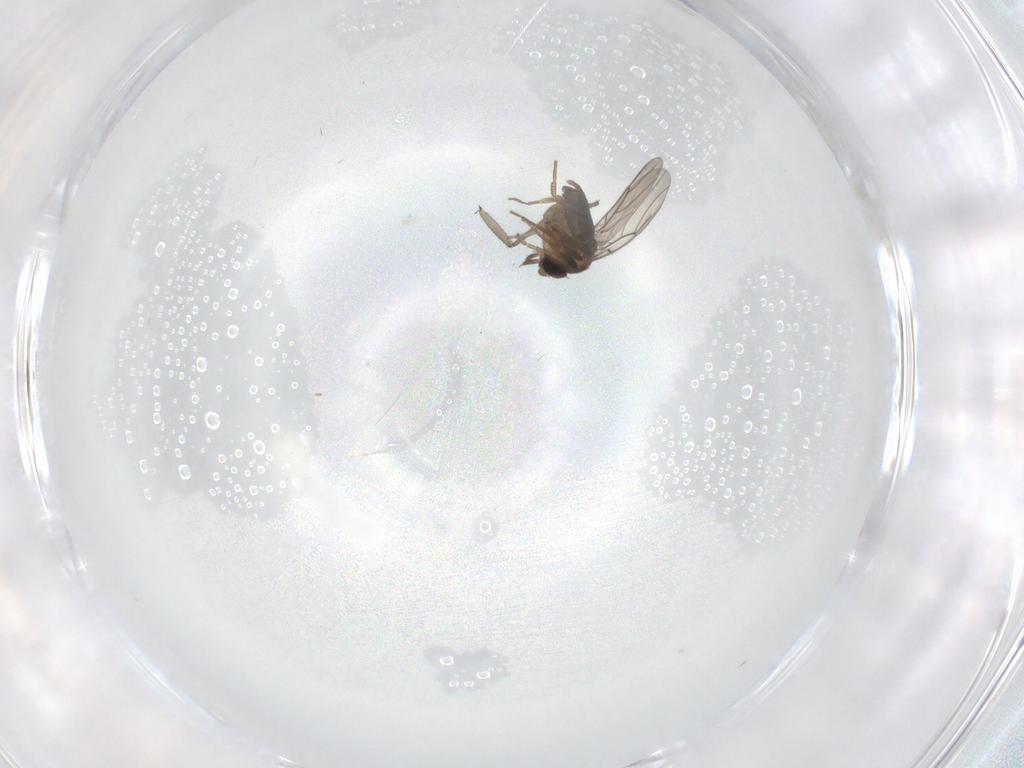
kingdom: Animalia
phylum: Arthropoda
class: Insecta
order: Diptera
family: Phoridae
